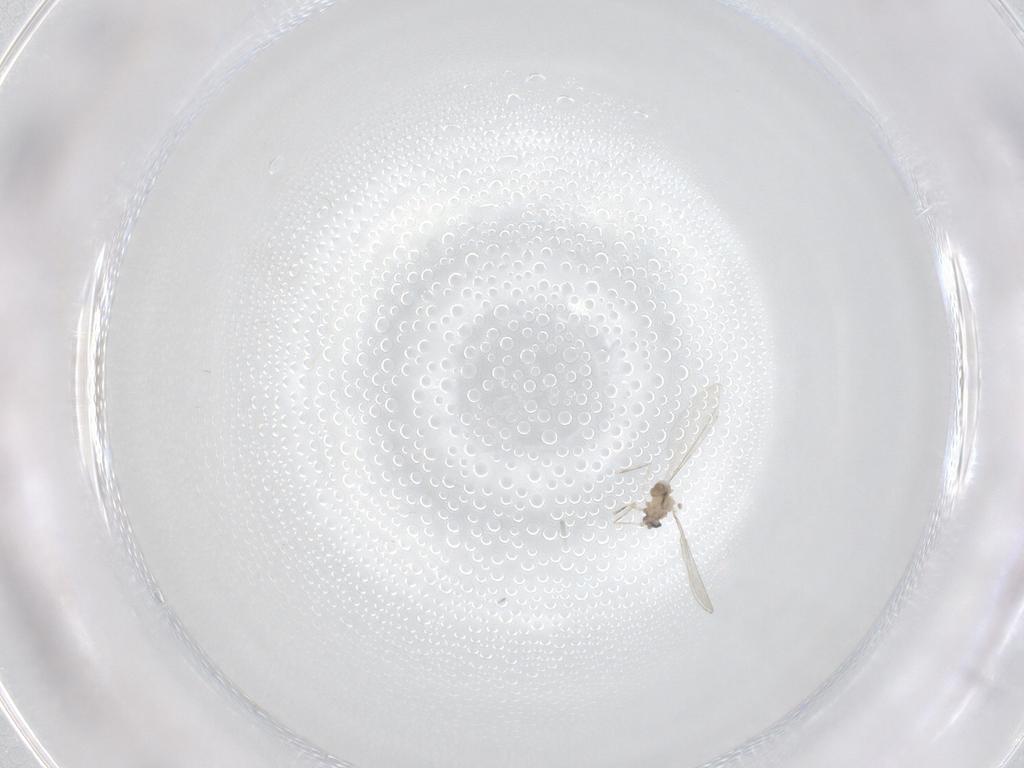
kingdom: Animalia
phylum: Arthropoda
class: Insecta
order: Diptera
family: Cecidomyiidae
